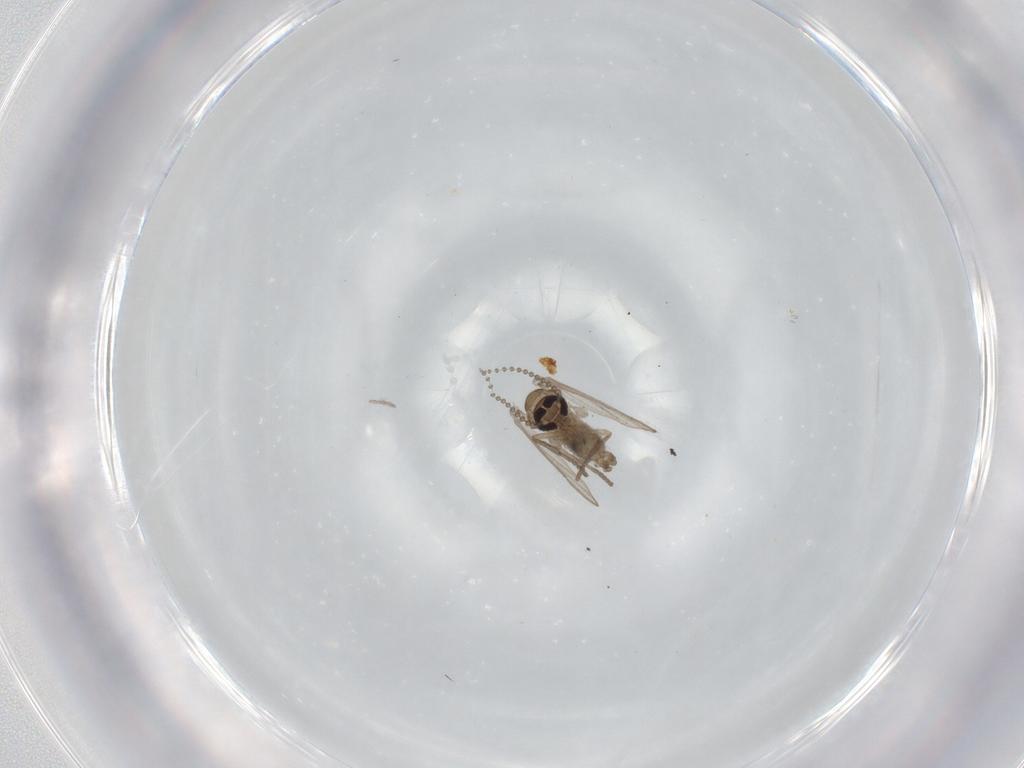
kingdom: Animalia
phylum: Arthropoda
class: Insecta
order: Diptera
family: Psychodidae
